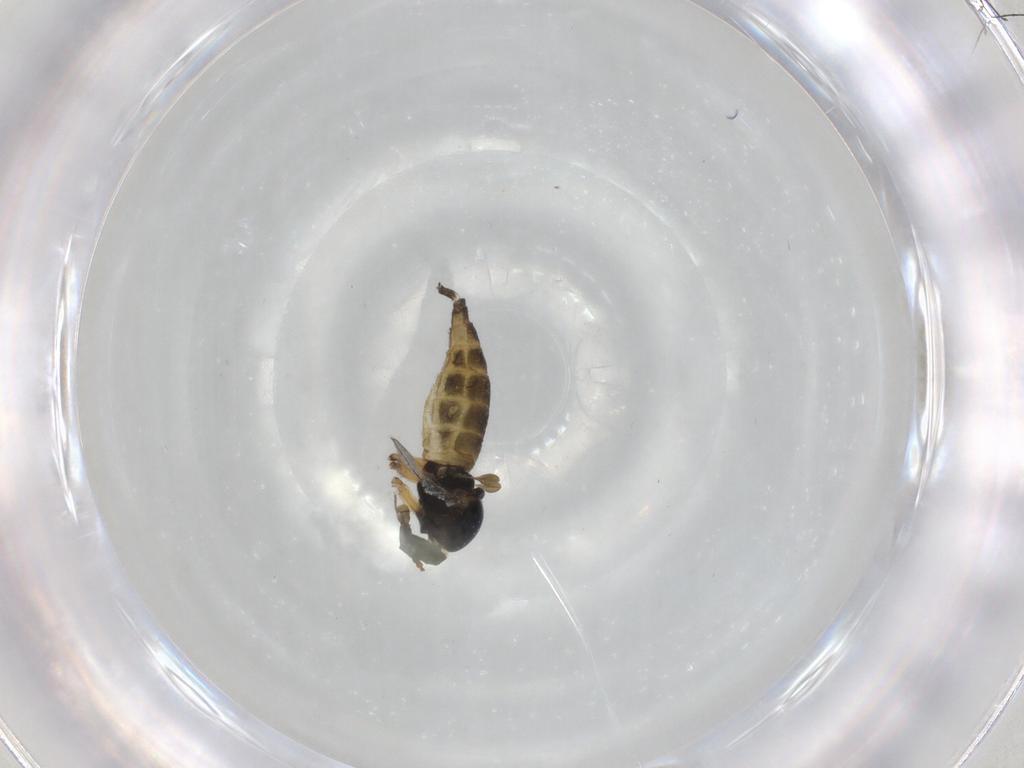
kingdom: Animalia
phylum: Arthropoda
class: Insecta
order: Diptera
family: Sciaridae
